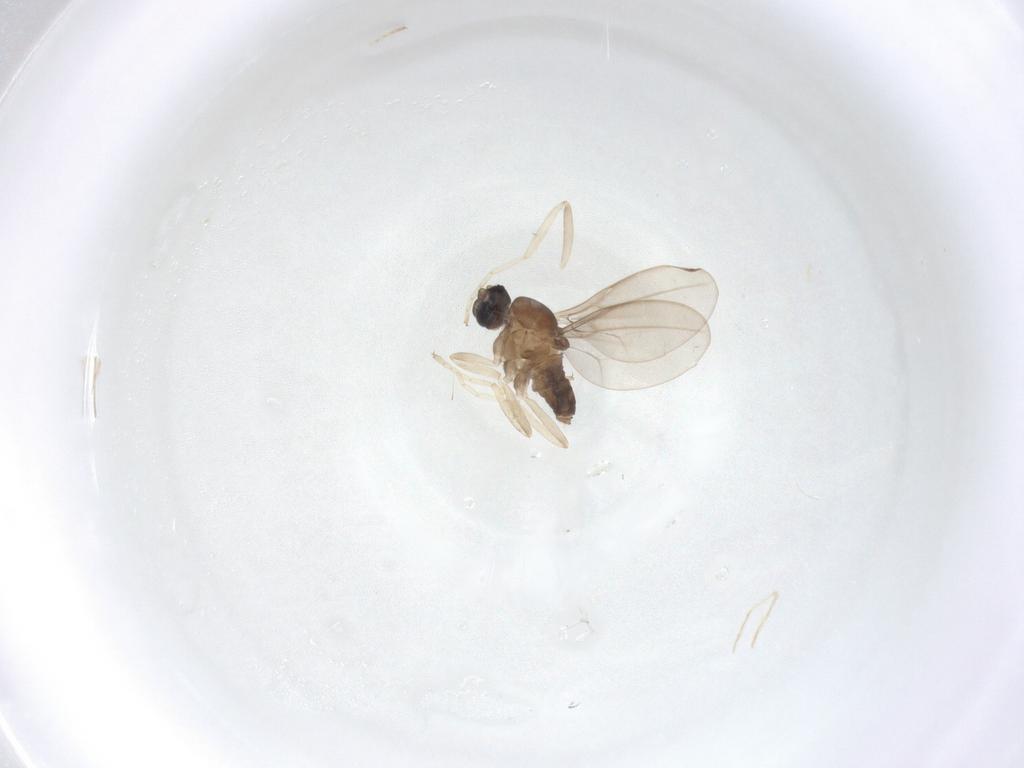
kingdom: Animalia
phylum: Arthropoda
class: Insecta
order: Diptera
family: Cecidomyiidae
